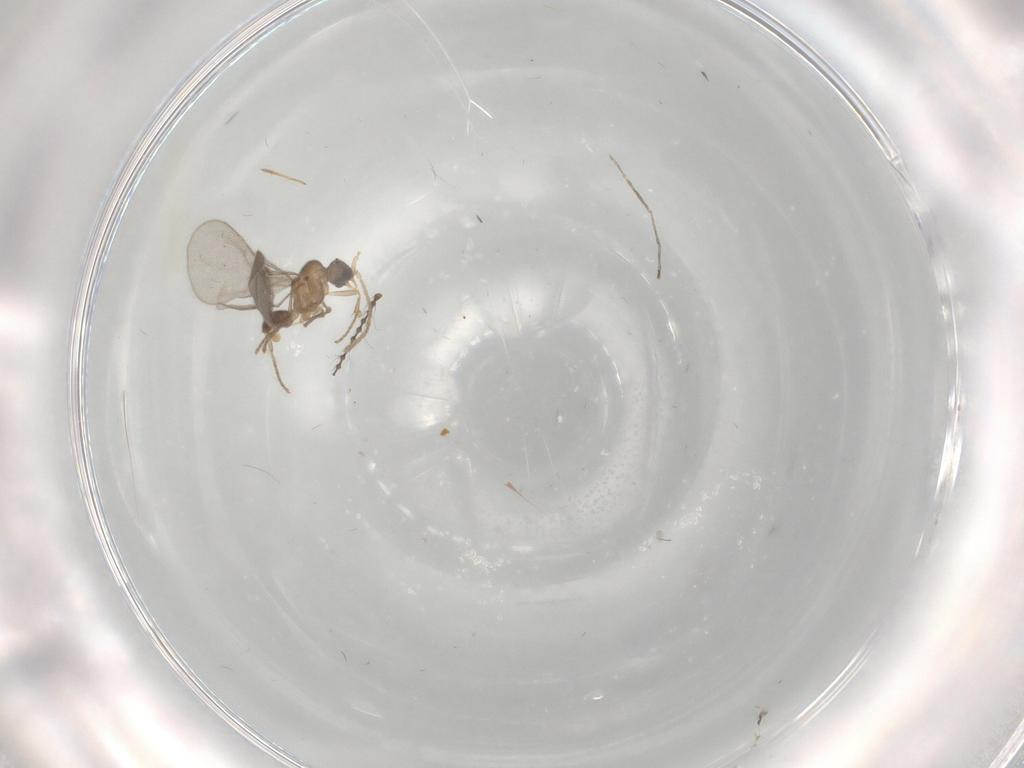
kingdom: Animalia
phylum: Arthropoda
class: Insecta
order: Hymenoptera
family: Formicidae
